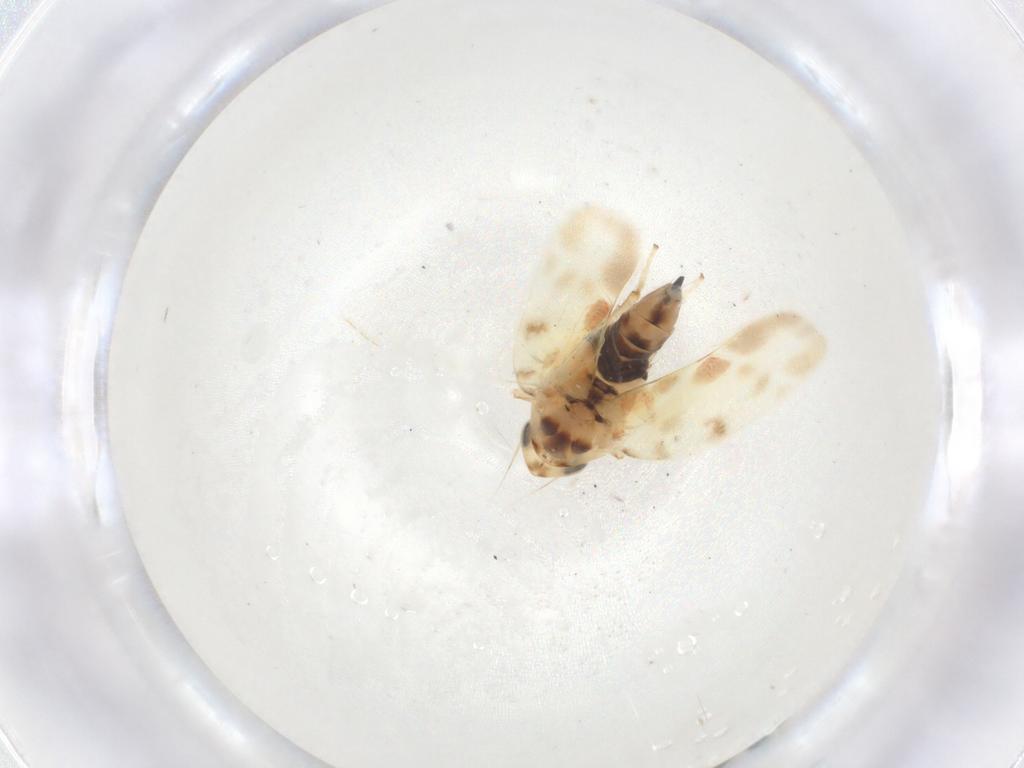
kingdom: Animalia
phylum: Arthropoda
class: Insecta
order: Hemiptera
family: Cicadellidae
